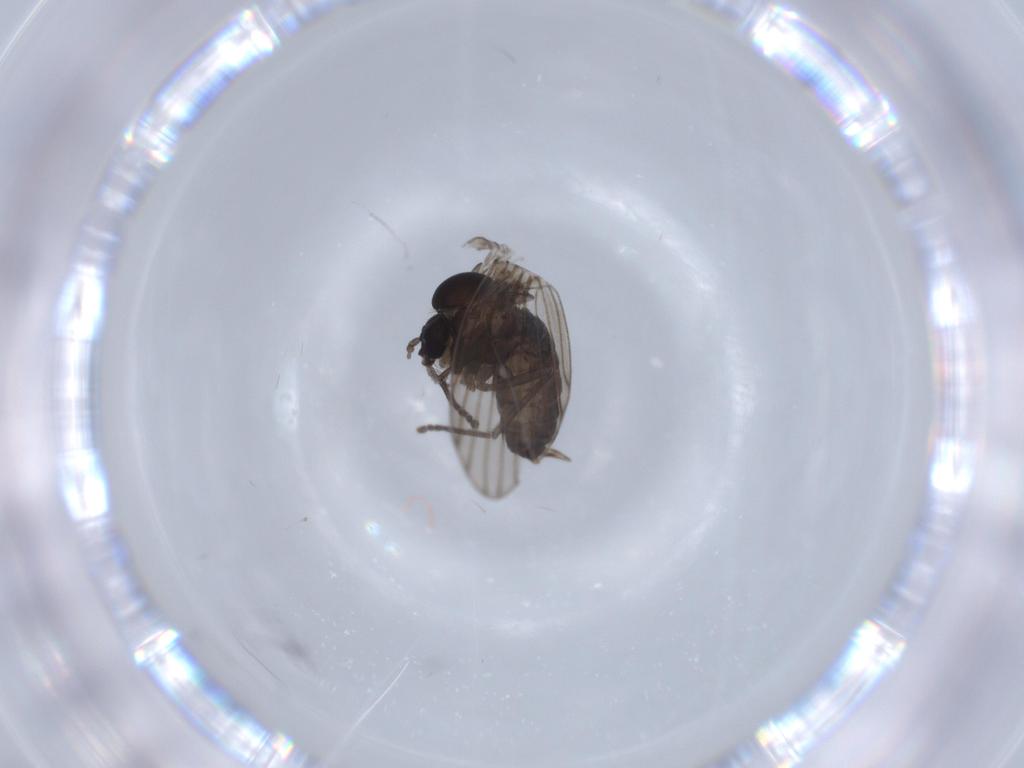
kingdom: Animalia
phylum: Arthropoda
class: Insecta
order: Diptera
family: Psychodidae
